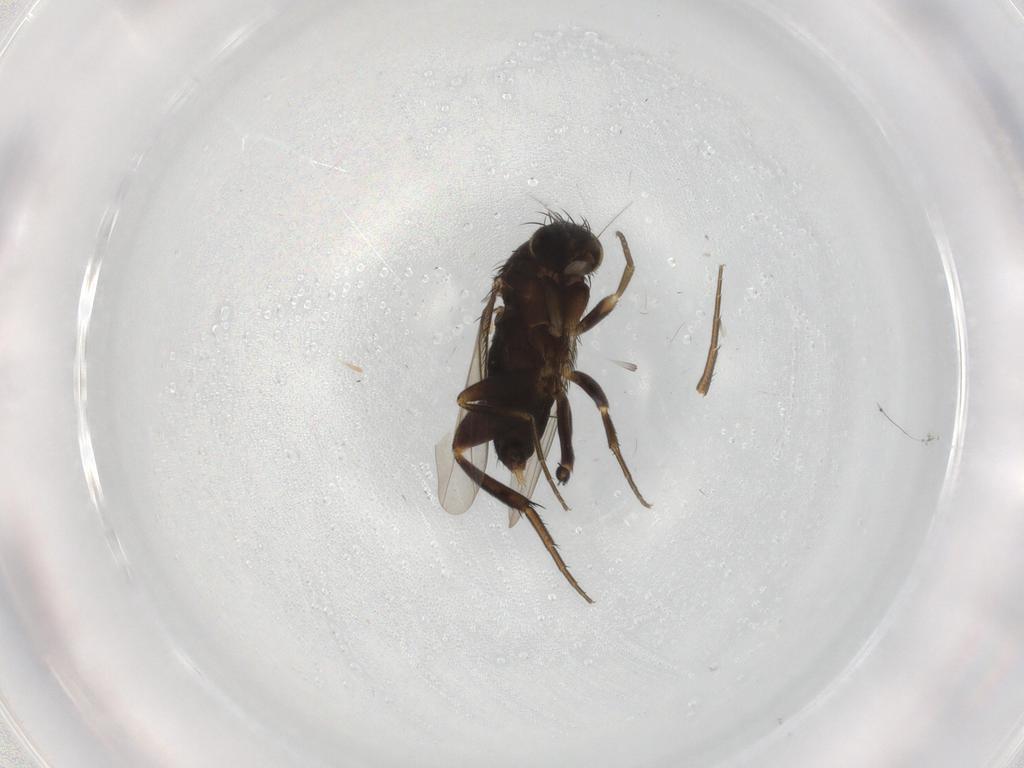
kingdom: Animalia
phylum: Arthropoda
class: Insecta
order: Diptera
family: Phoridae
